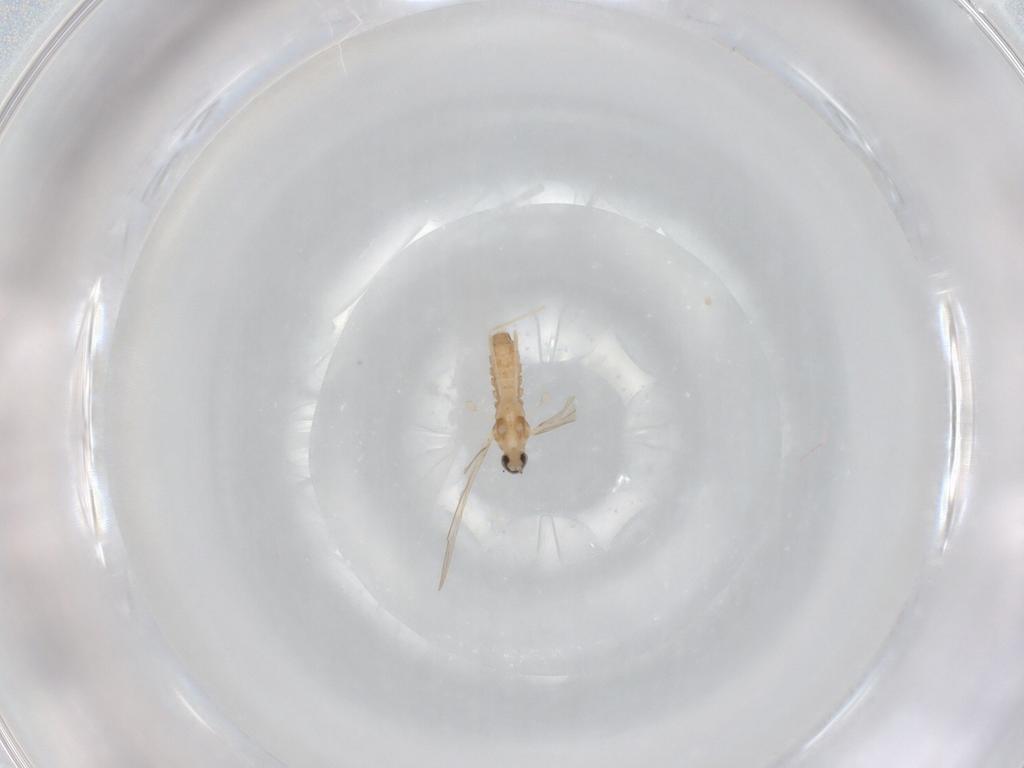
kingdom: Animalia
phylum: Arthropoda
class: Insecta
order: Diptera
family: Cecidomyiidae
